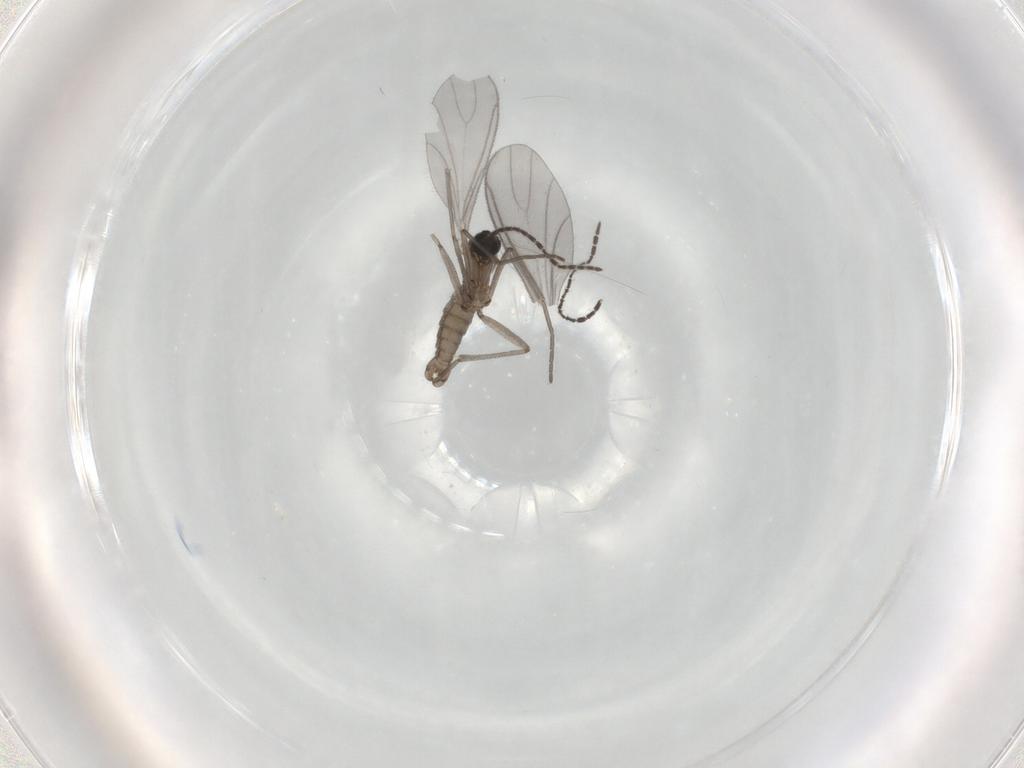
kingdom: Animalia
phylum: Arthropoda
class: Insecta
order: Diptera
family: Sciaridae
